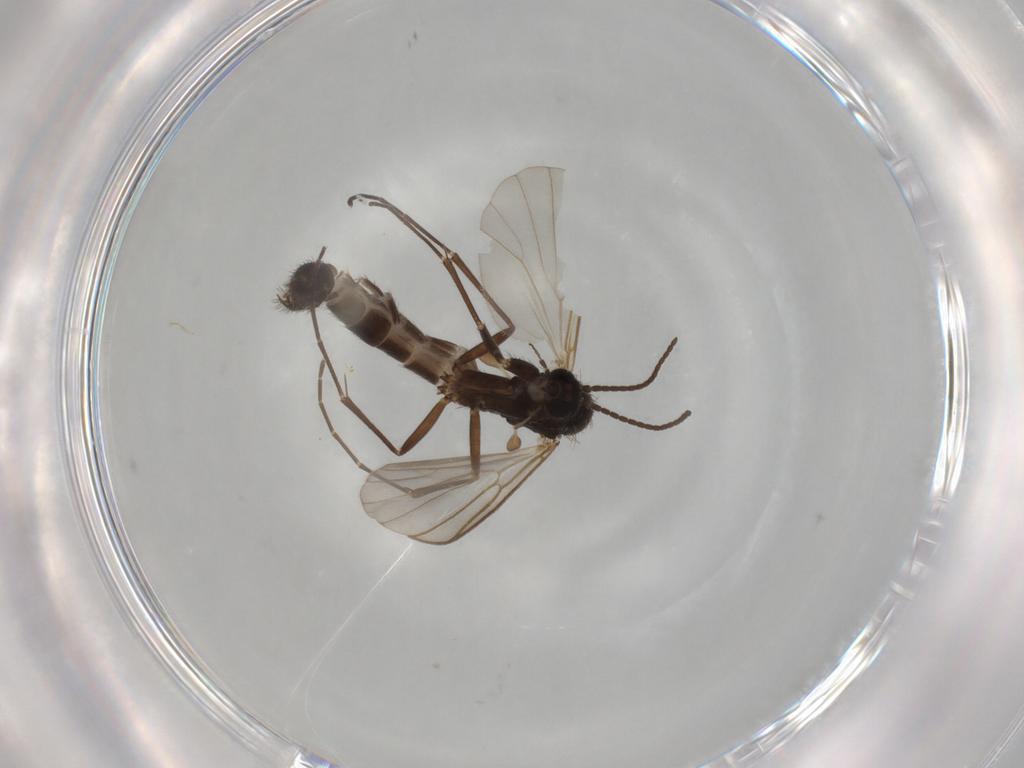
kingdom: Animalia
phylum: Arthropoda
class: Insecta
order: Diptera
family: Mycetophilidae
